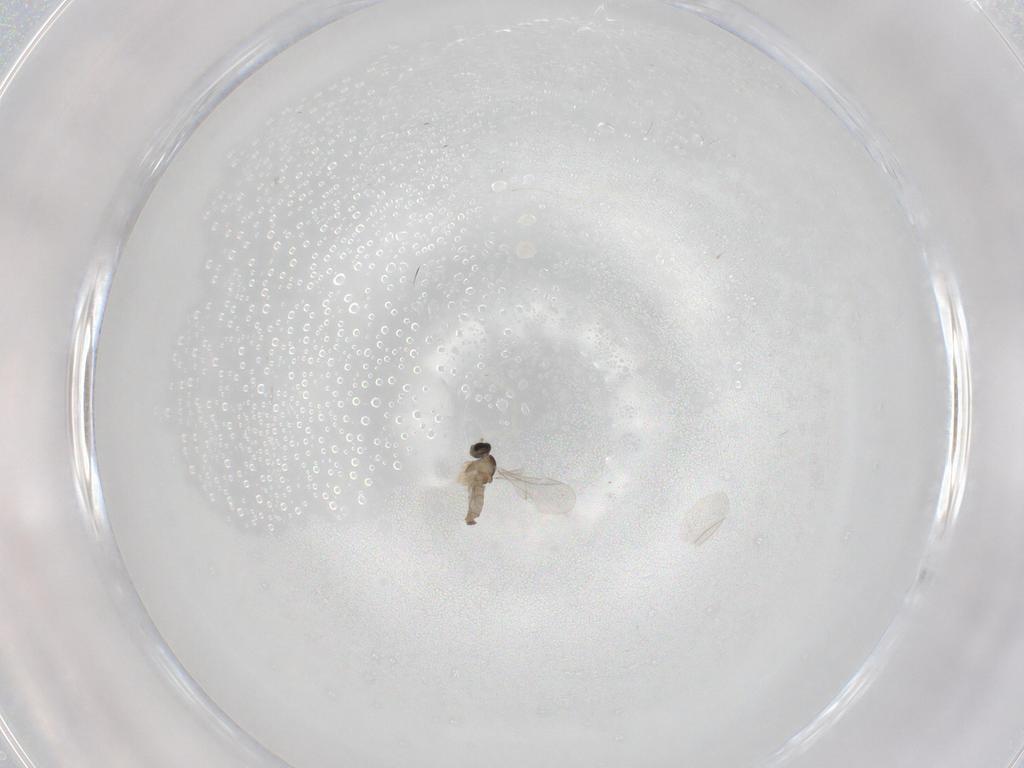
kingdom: Animalia
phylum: Arthropoda
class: Insecta
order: Diptera
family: Cecidomyiidae
